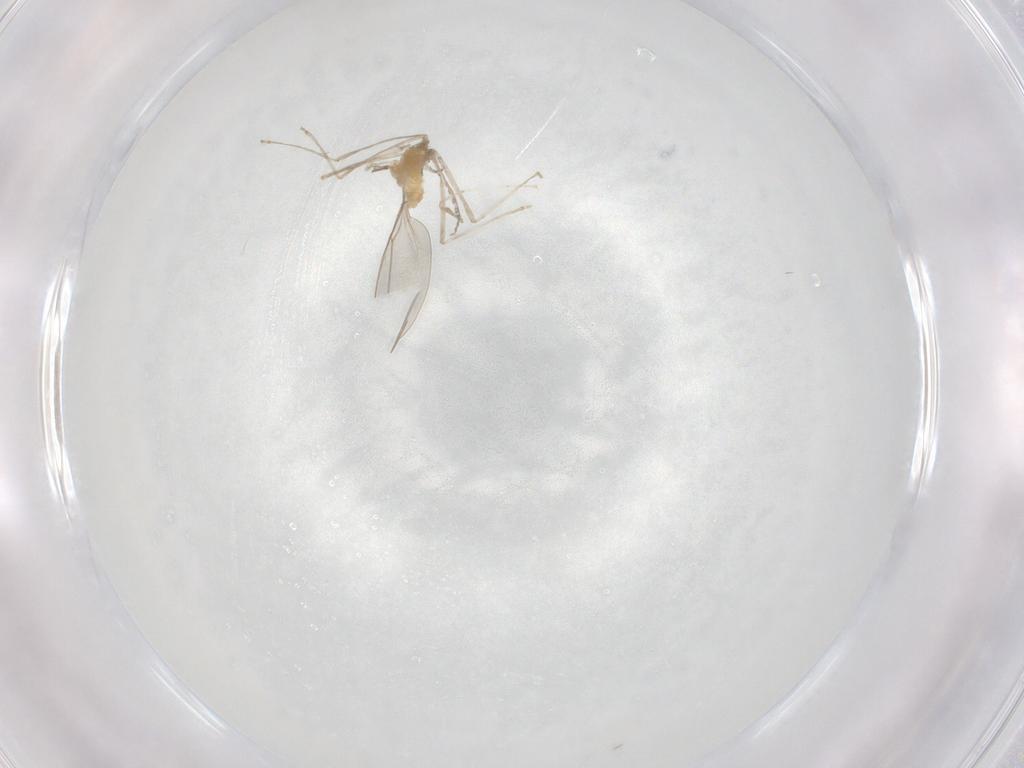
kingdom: Animalia
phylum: Arthropoda
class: Insecta
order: Diptera
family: Cecidomyiidae
